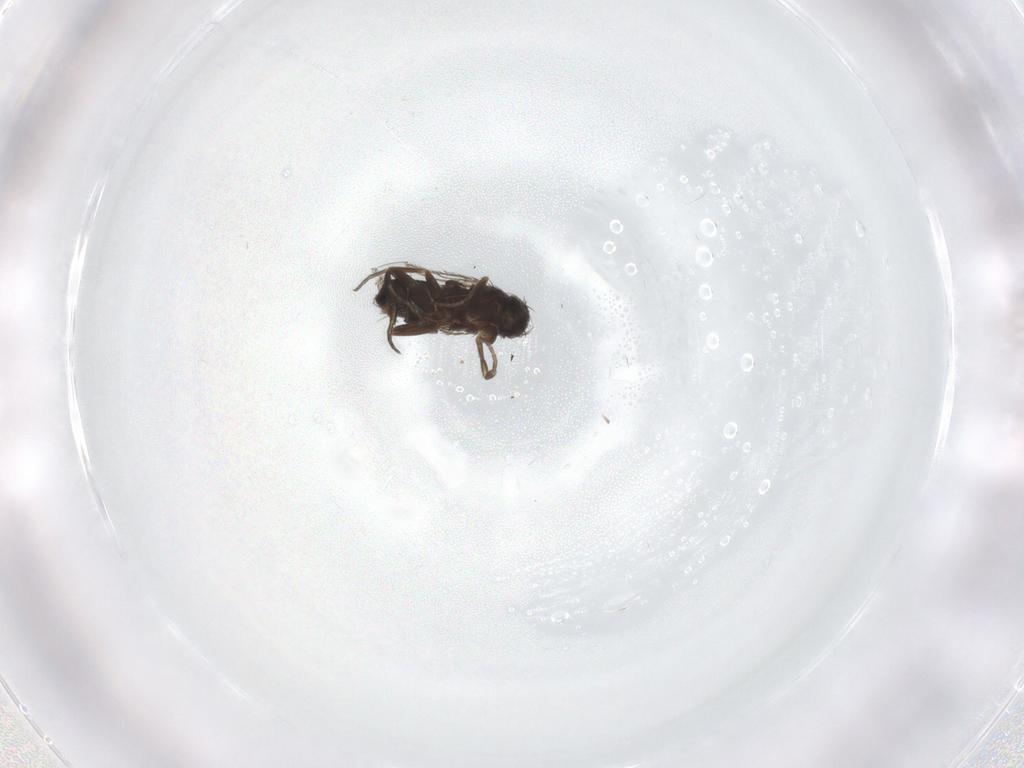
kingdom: Animalia
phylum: Arthropoda
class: Insecta
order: Diptera
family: Phoridae
